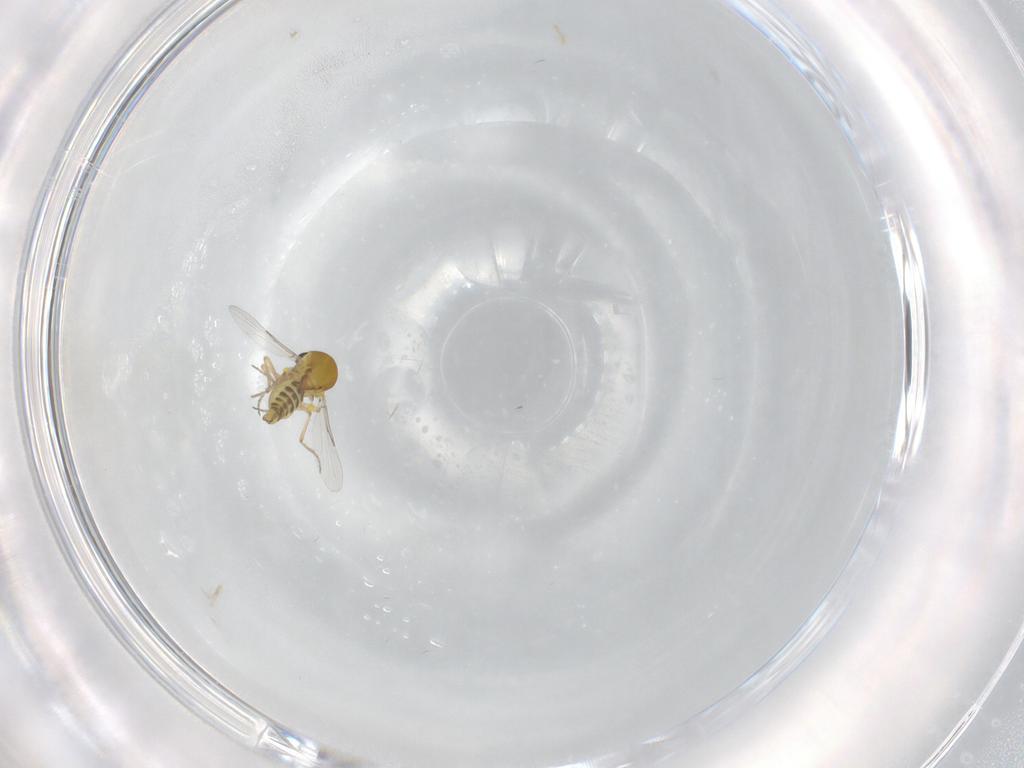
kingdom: Animalia
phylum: Arthropoda
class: Insecta
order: Diptera
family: Ceratopogonidae
